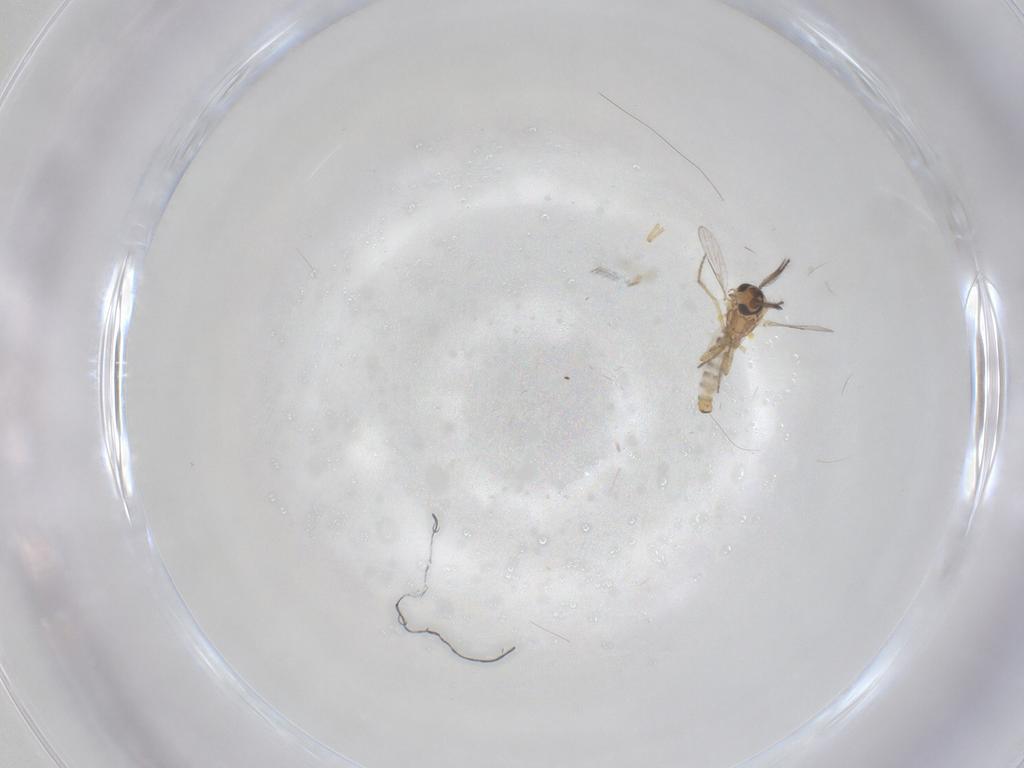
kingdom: Animalia
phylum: Arthropoda
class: Insecta
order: Diptera
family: Ceratopogonidae
